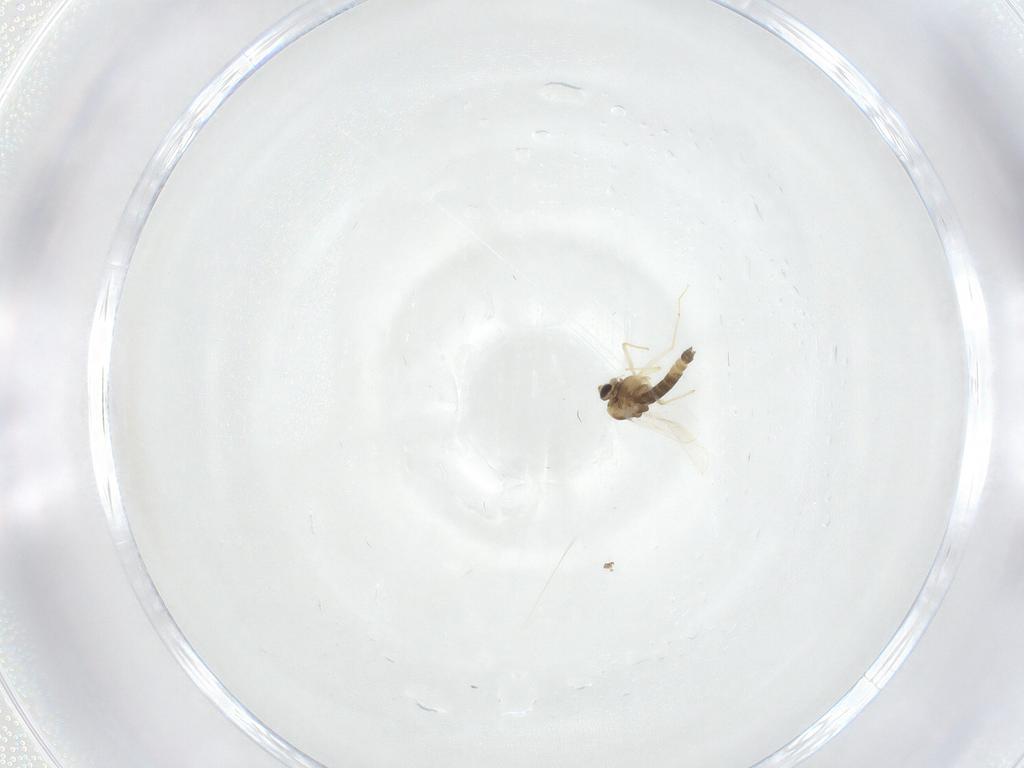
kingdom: Animalia
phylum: Arthropoda
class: Insecta
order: Diptera
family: Chironomidae
